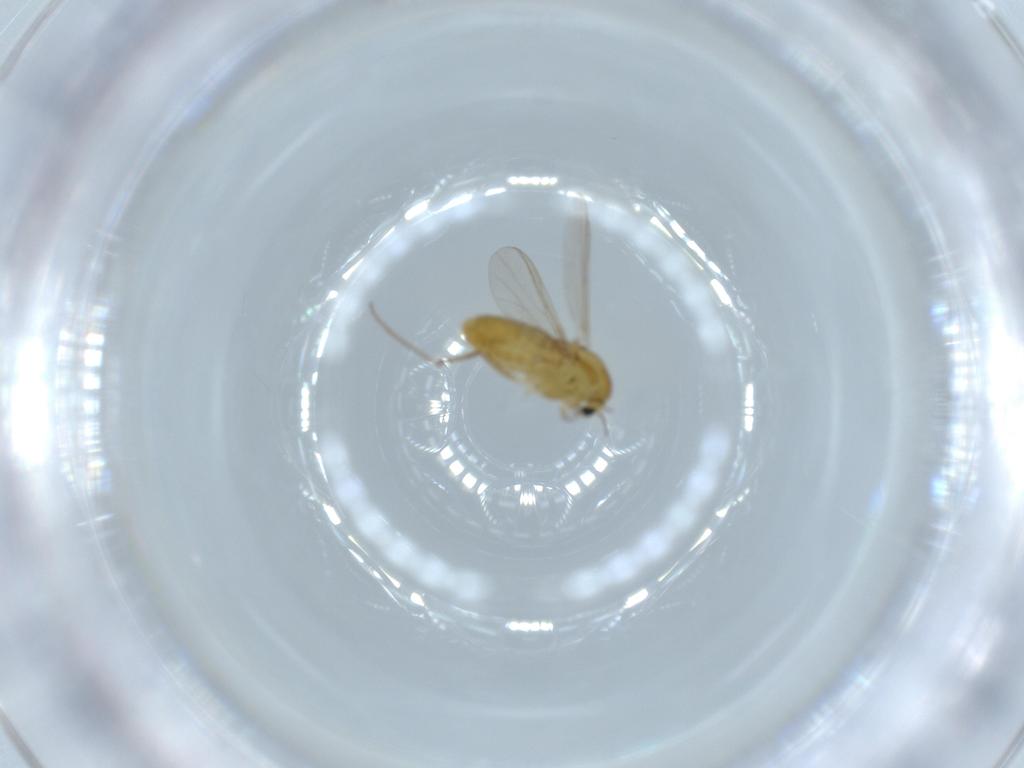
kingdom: Animalia
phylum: Arthropoda
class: Insecta
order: Diptera
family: Chironomidae
